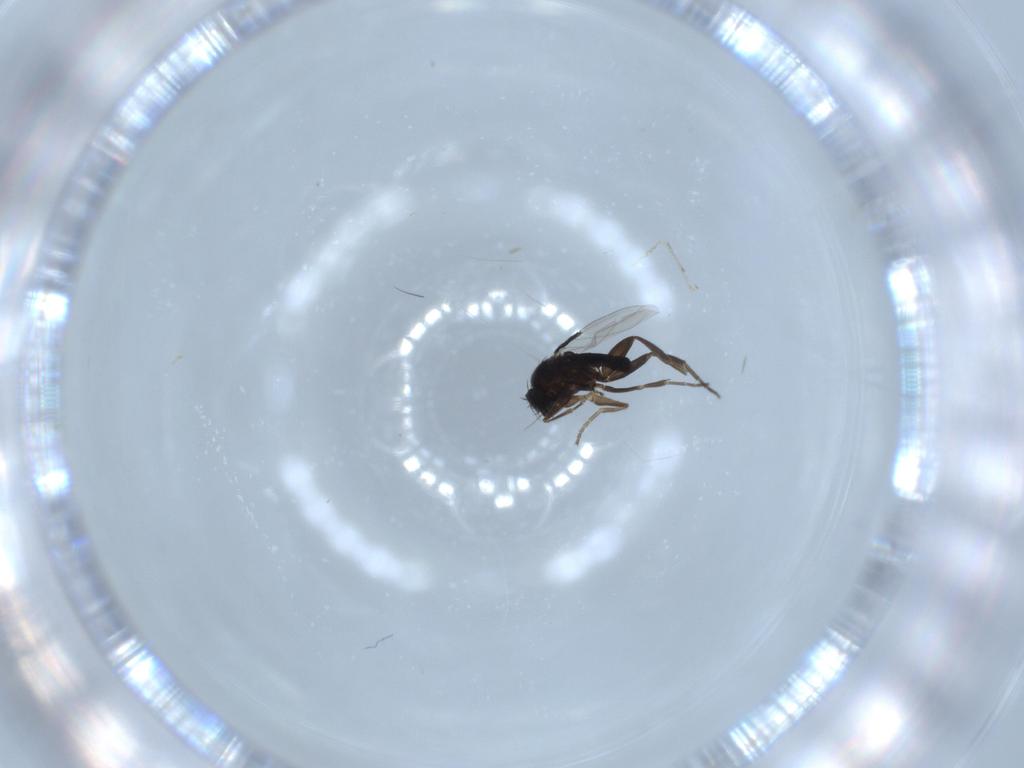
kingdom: Animalia
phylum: Arthropoda
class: Insecta
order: Diptera
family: Phoridae
